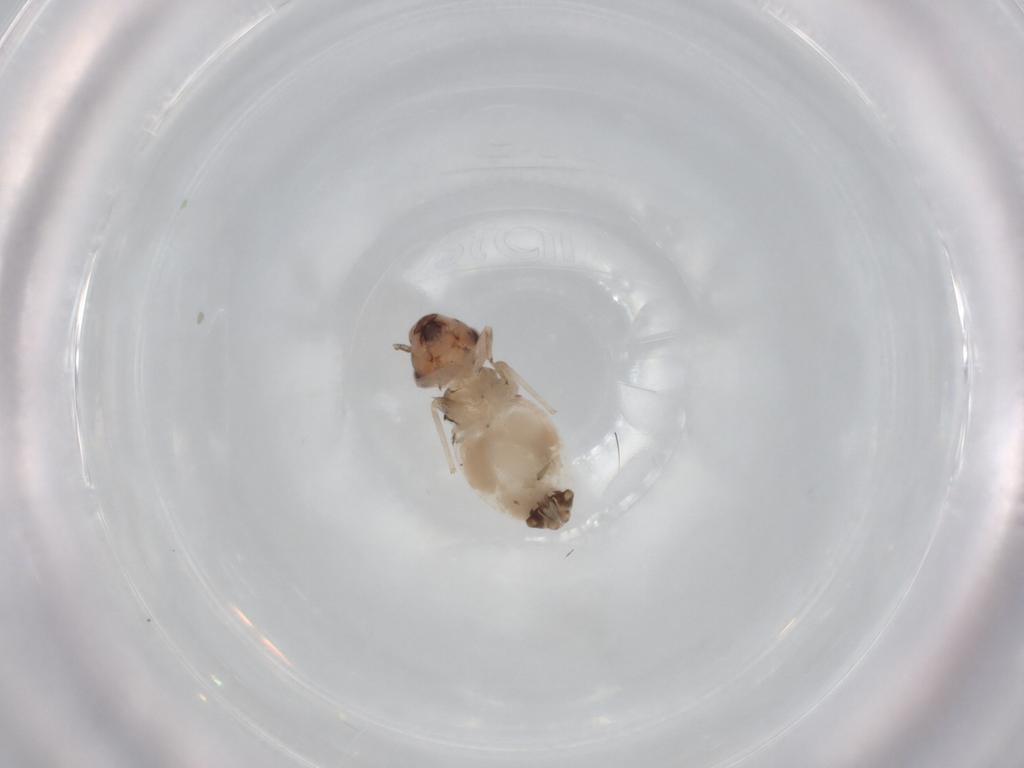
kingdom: Animalia
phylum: Arthropoda
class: Insecta
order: Psocodea
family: Trogiidae
